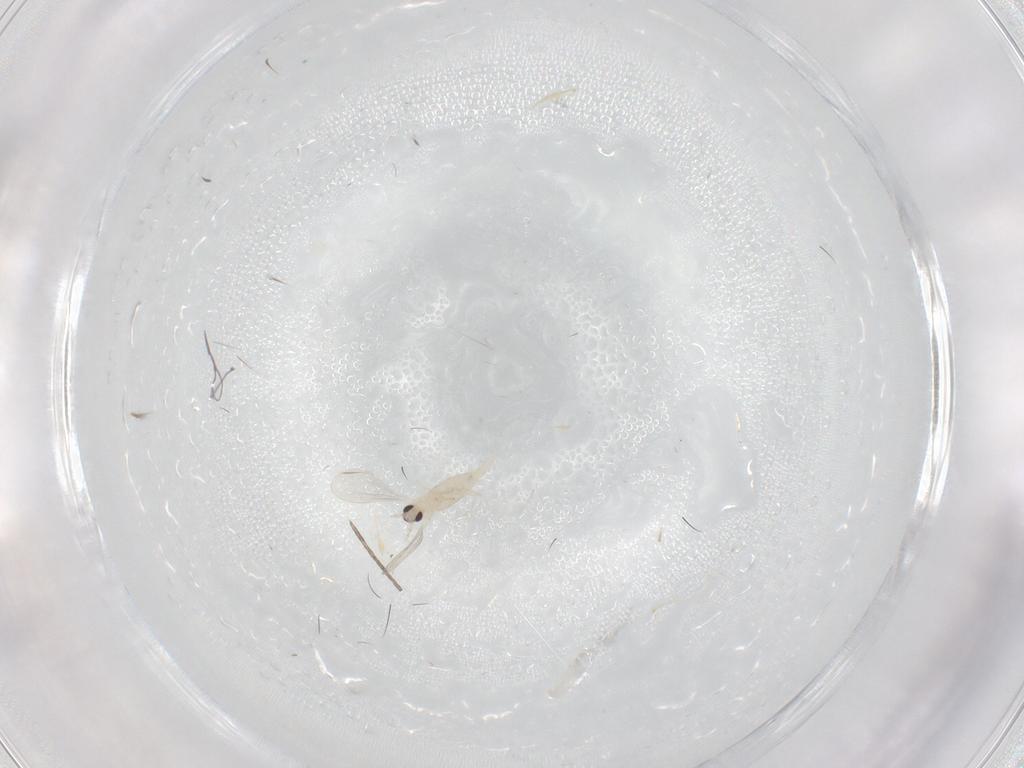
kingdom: Animalia
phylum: Arthropoda
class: Insecta
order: Diptera
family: Cecidomyiidae
